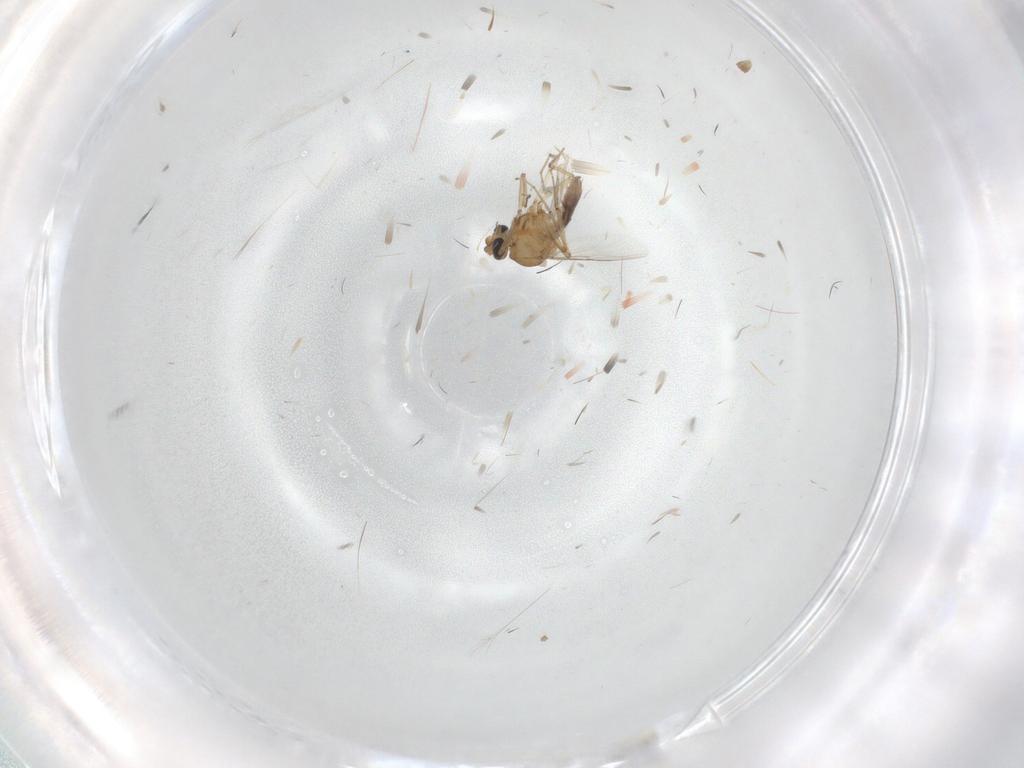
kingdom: Animalia
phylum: Arthropoda
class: Insecta
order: Diptera
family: Cecidomyiidae
